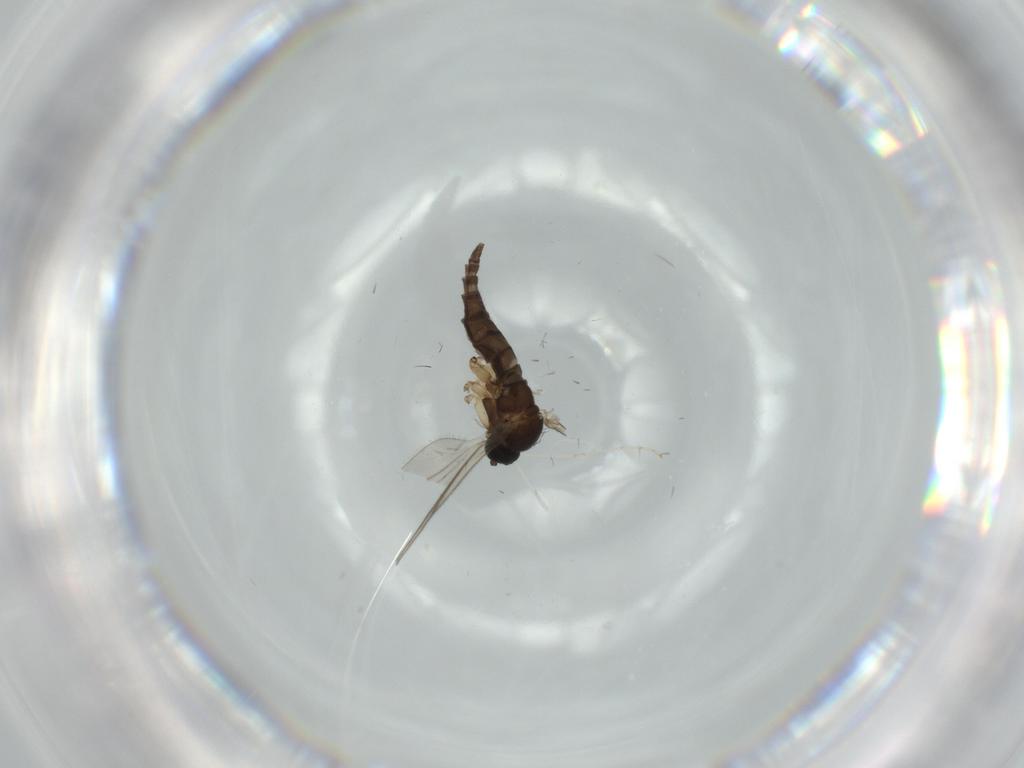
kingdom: Animalia
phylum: Arthropoda
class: Insecta
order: Diptera
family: Sciaridae
